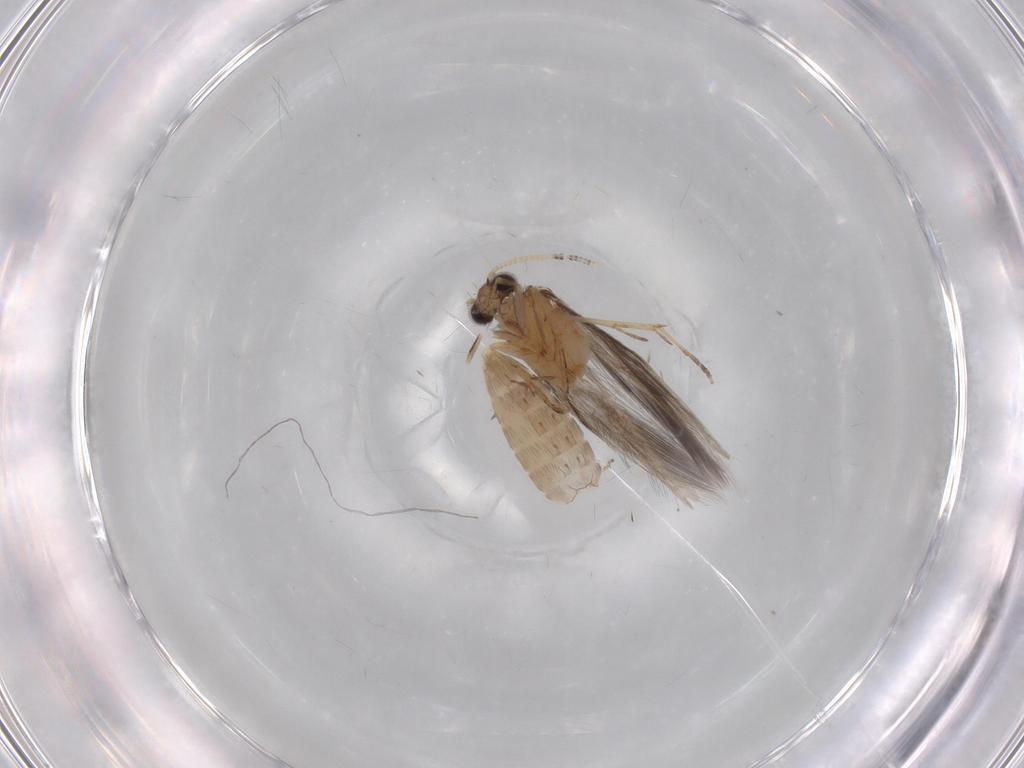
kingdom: Animalia
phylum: Arthropoda
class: Insecta
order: Trichoptera
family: Hydroptilidae
